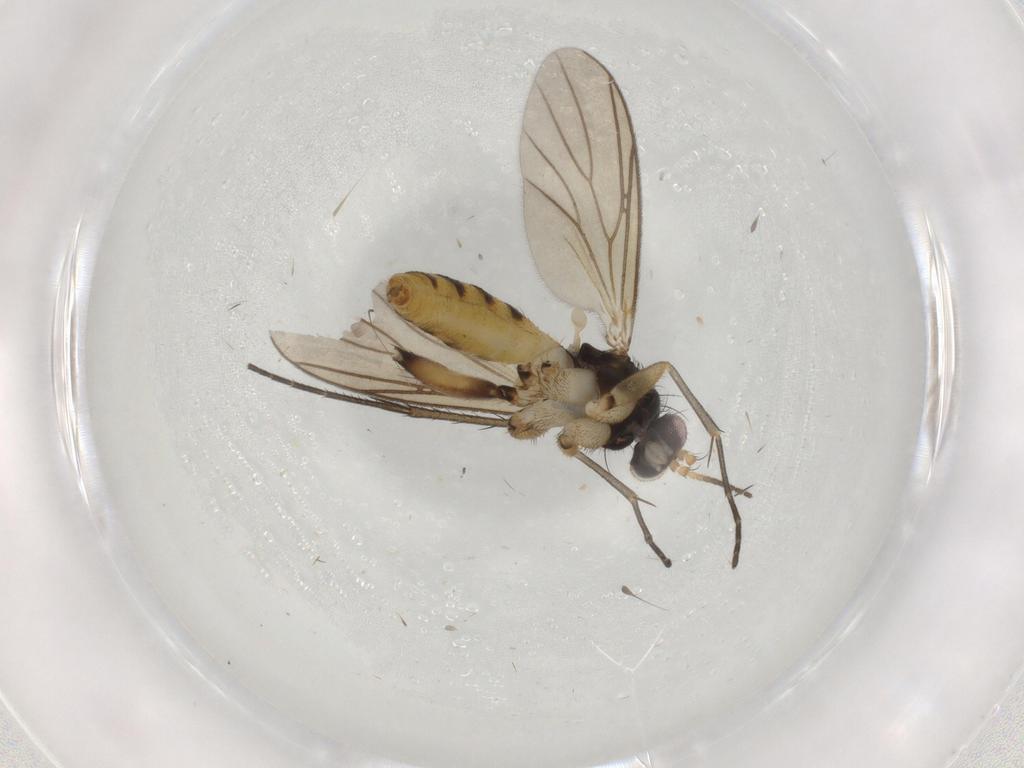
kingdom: Animalia
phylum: Arthropoda
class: Insecta
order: Diptera
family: Mycetophilidae
